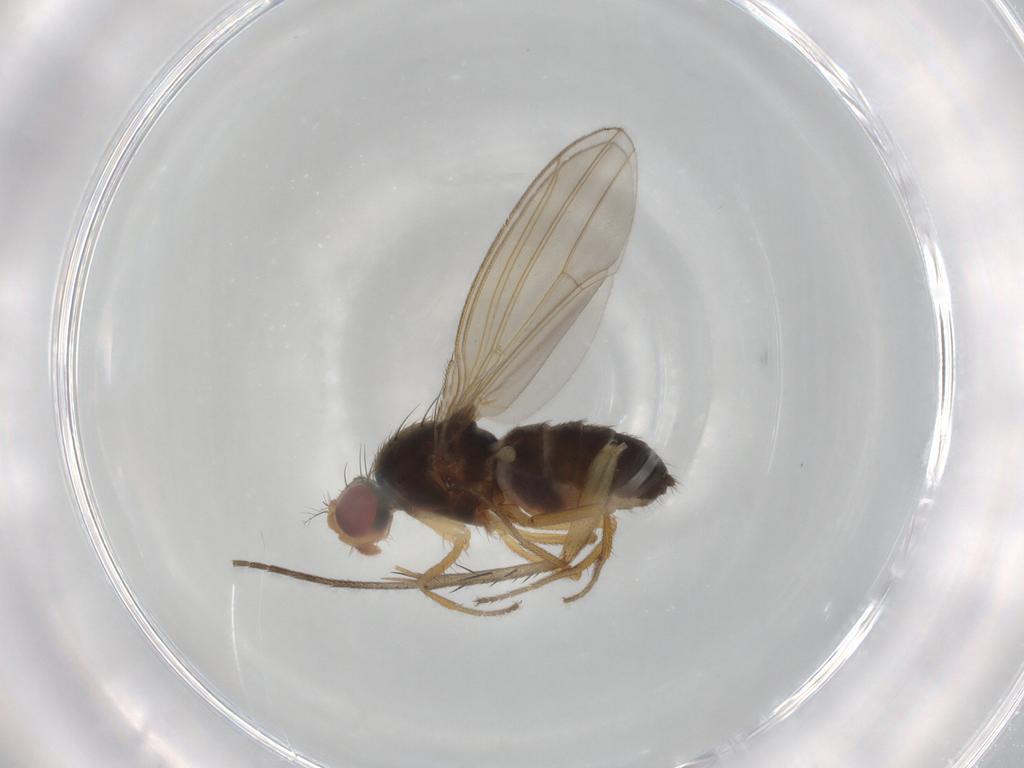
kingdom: Animalia
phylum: Arthropoda
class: Insecta
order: Diptera
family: Drosophilidae
